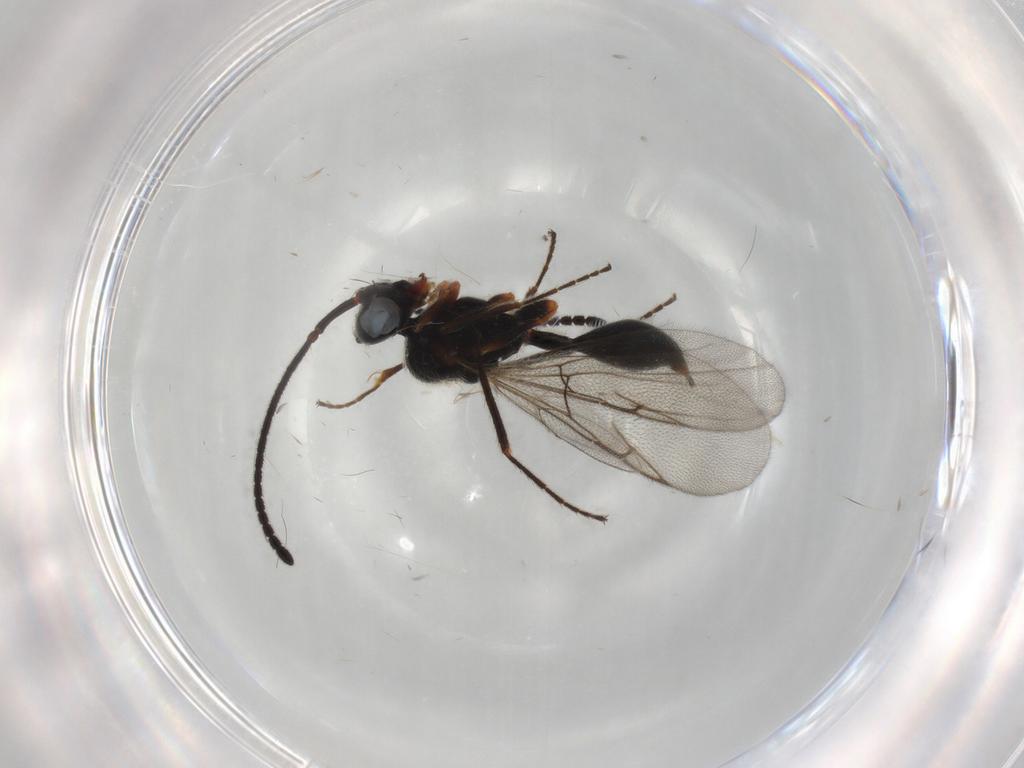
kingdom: Animalia
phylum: Arthropoda
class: Insecta
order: Hymenoptera
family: Diapriidae
